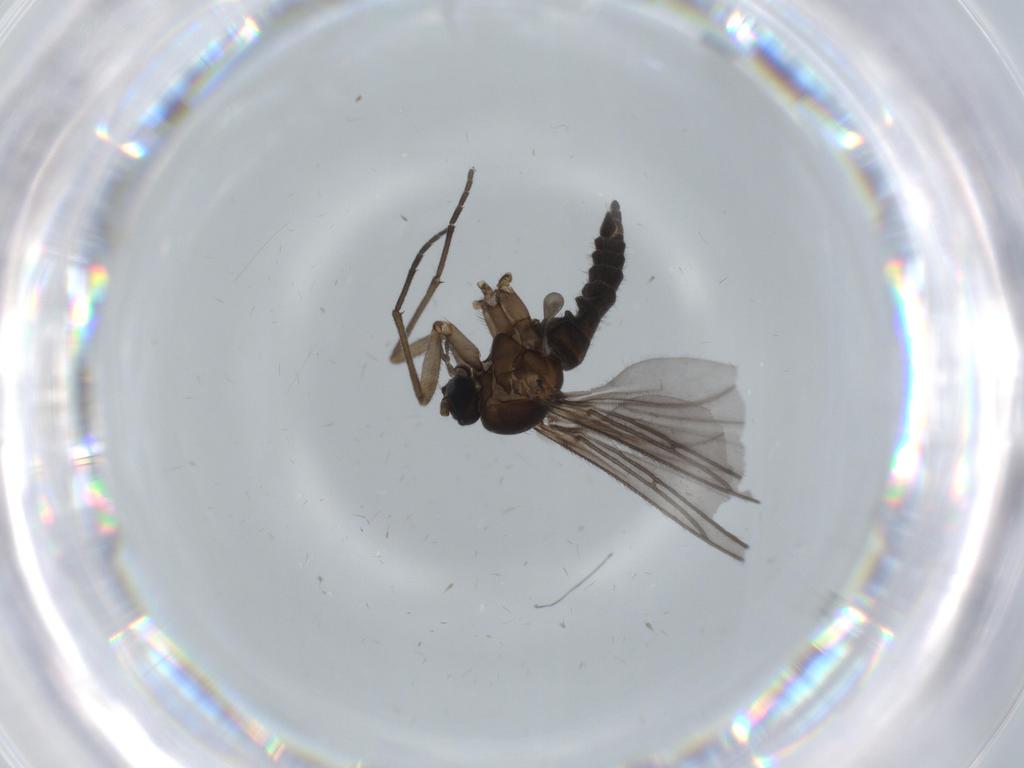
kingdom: Animalia
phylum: Arthropoda
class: Insecta
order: Diptera
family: Sciaridae
